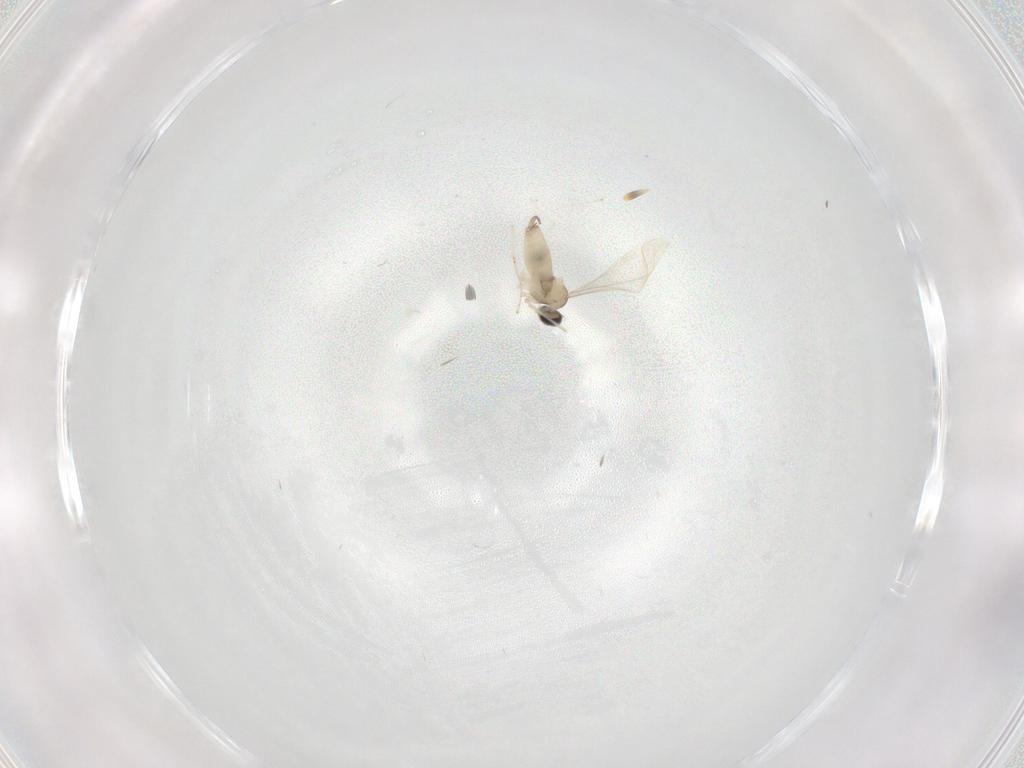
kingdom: Animalia
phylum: Arthropoda
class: Insecta
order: Diptera
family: Cecidomyiidae
